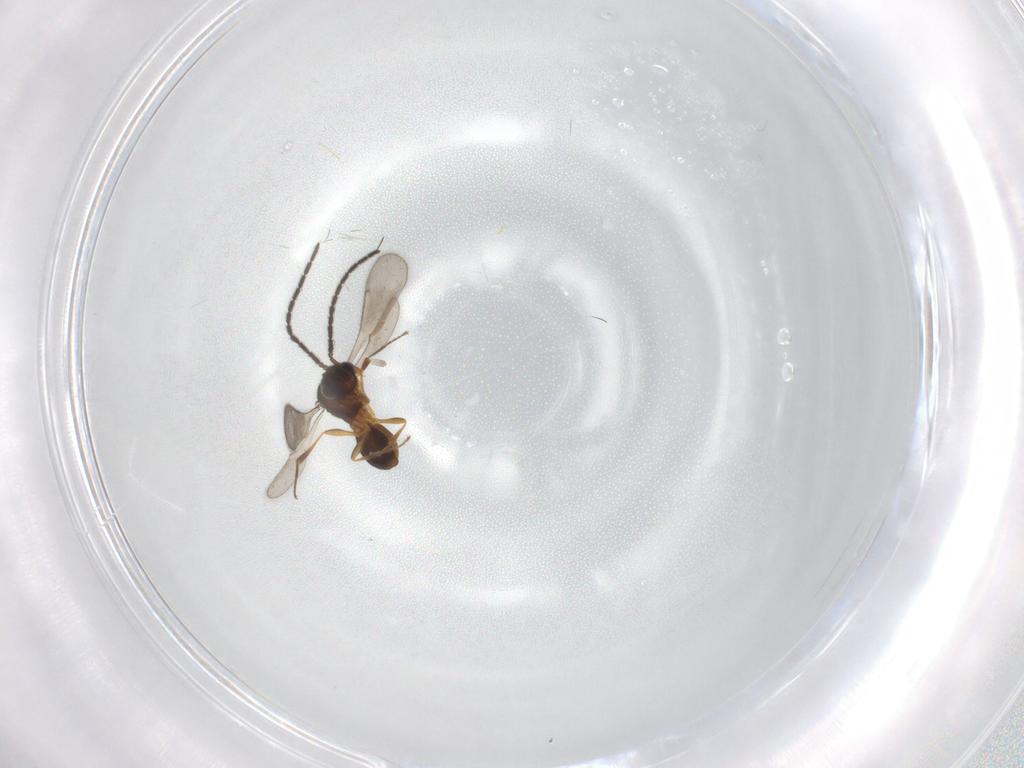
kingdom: Animalia
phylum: Arthropoda
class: Insecta
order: Hymenoptera
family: Scelionidae
